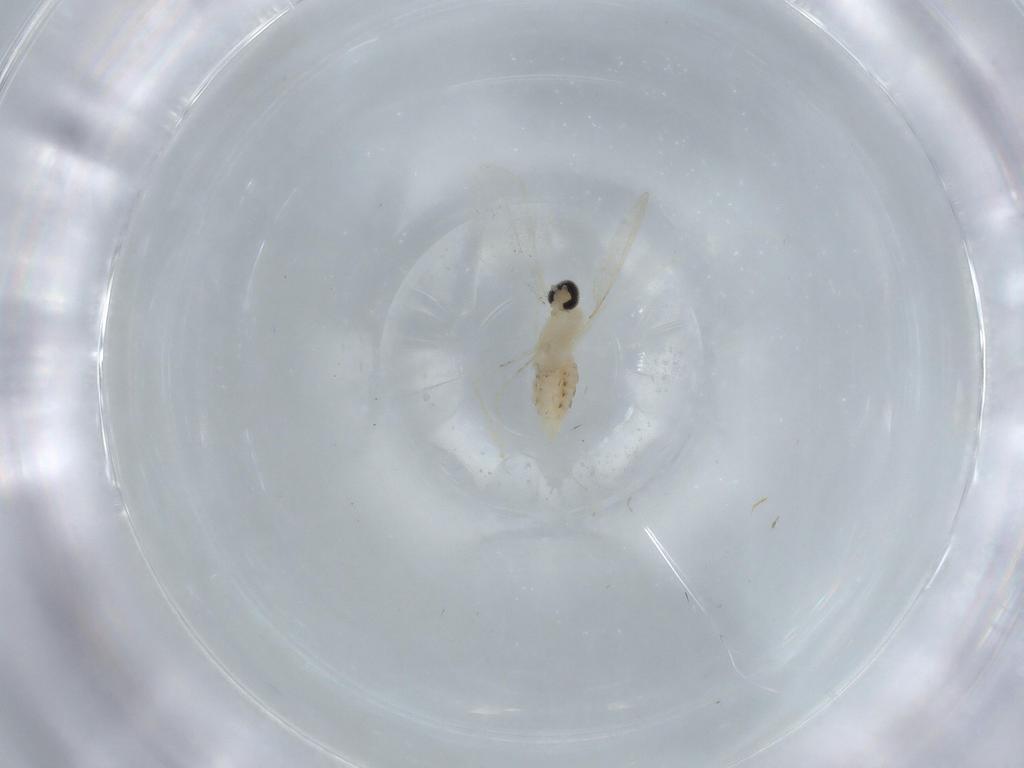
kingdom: Animalia
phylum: Arthropoda
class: Insecta
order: Diptera
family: Cecidomyiidae
